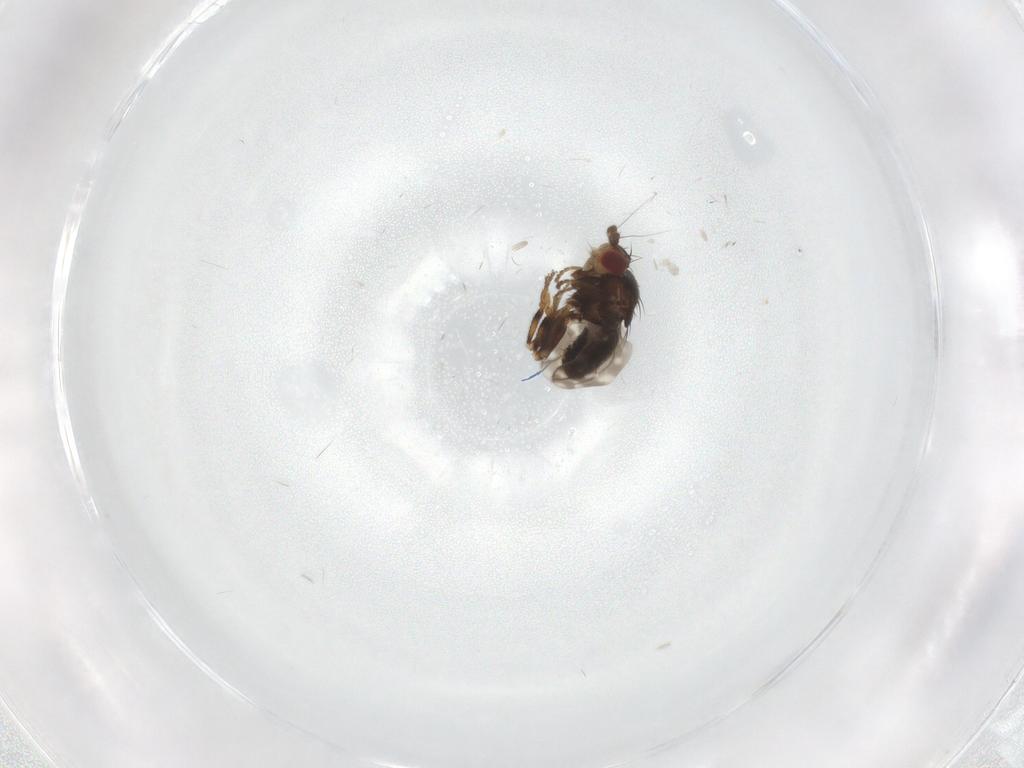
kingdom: Animalia
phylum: Arthropoda
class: Insecta
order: Diptera
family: Sphaeroceridae
